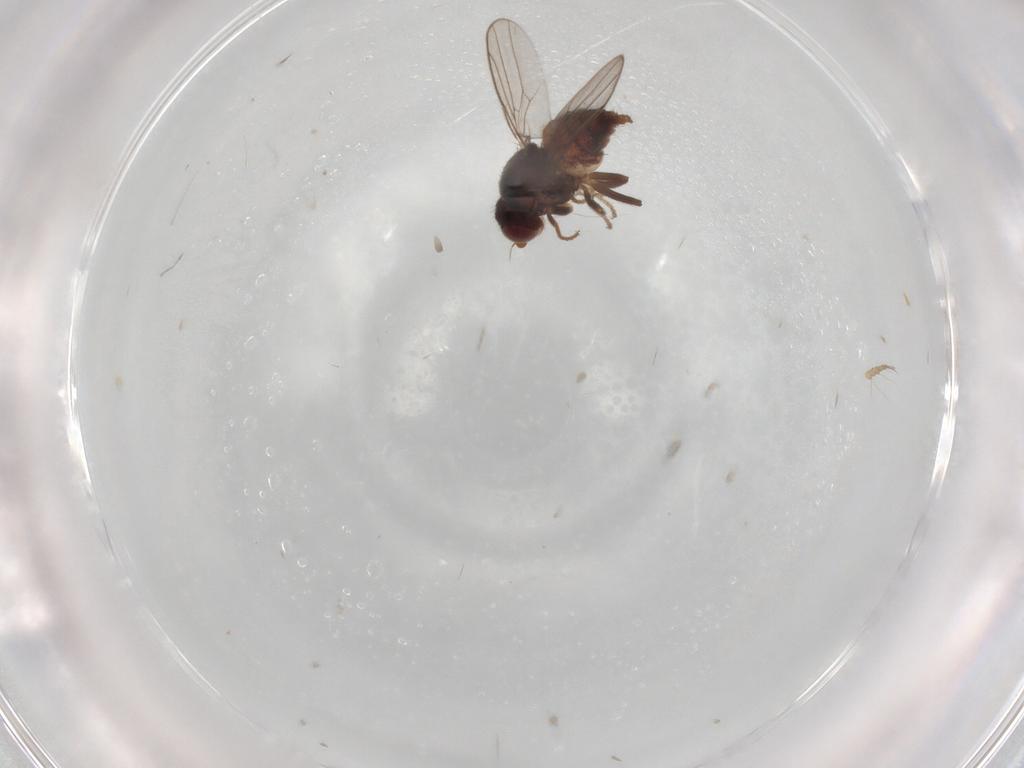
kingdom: Animalia
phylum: Arthropoda
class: Insecta
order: Diptera
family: Chloropidae
